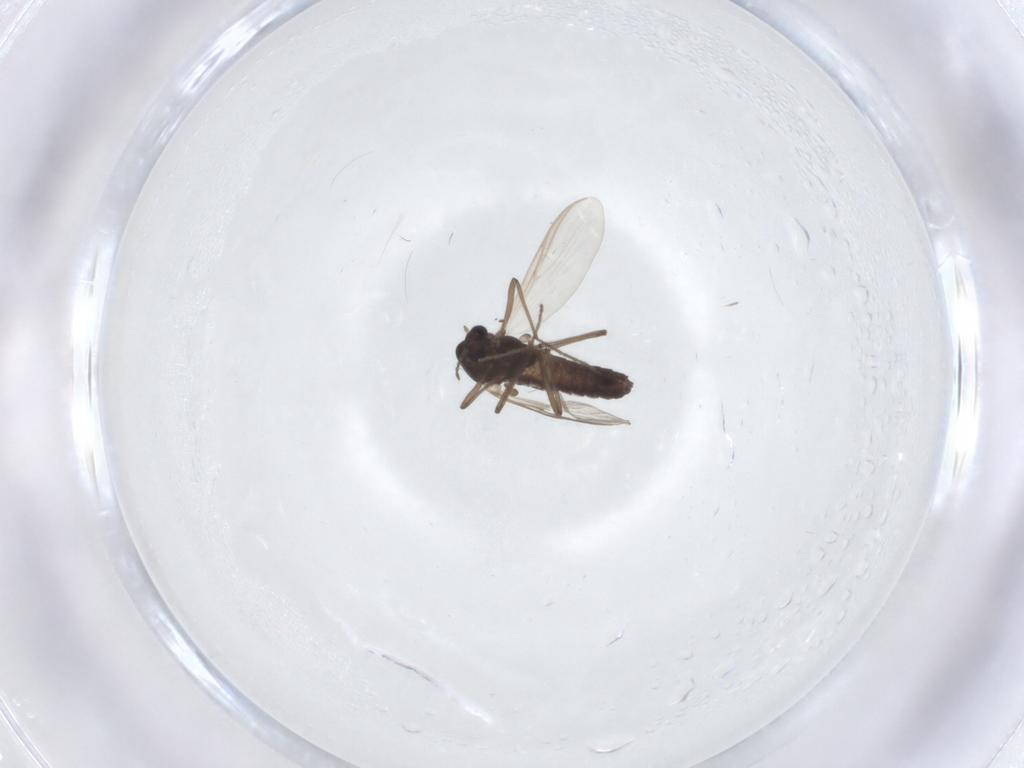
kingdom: Animalia
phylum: Arthropoda
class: Insecta
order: Diptera
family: Chironomidae
